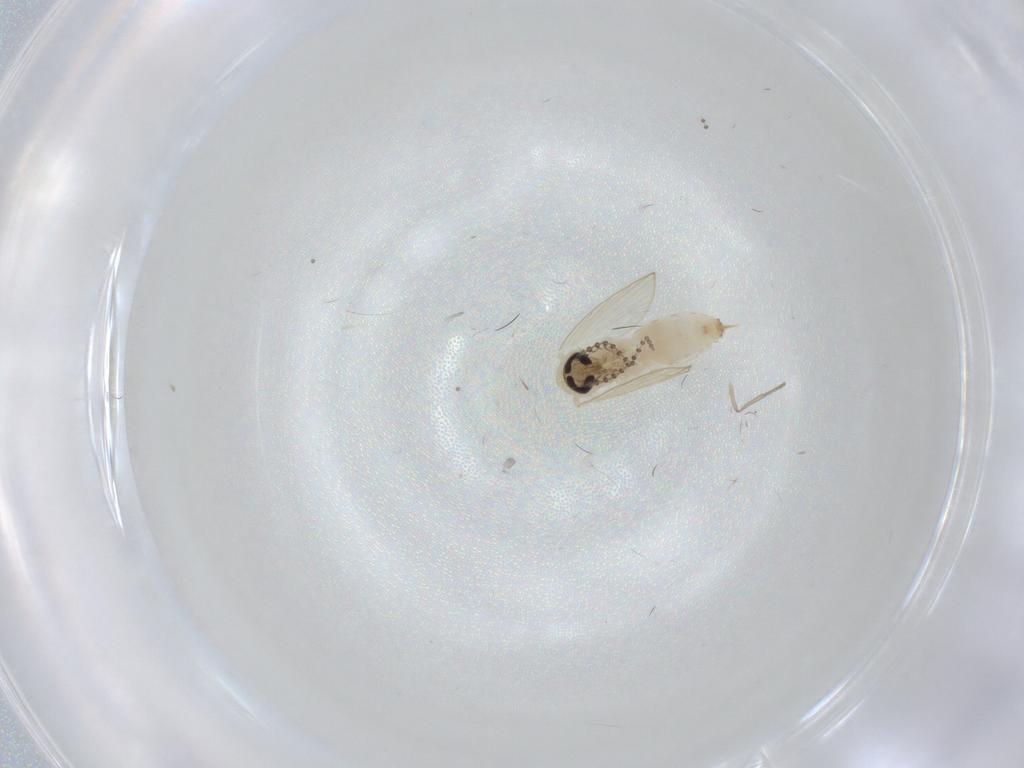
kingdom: Animalia
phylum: Arthropoda
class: Insecta
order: Diptera
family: Psychodidae
